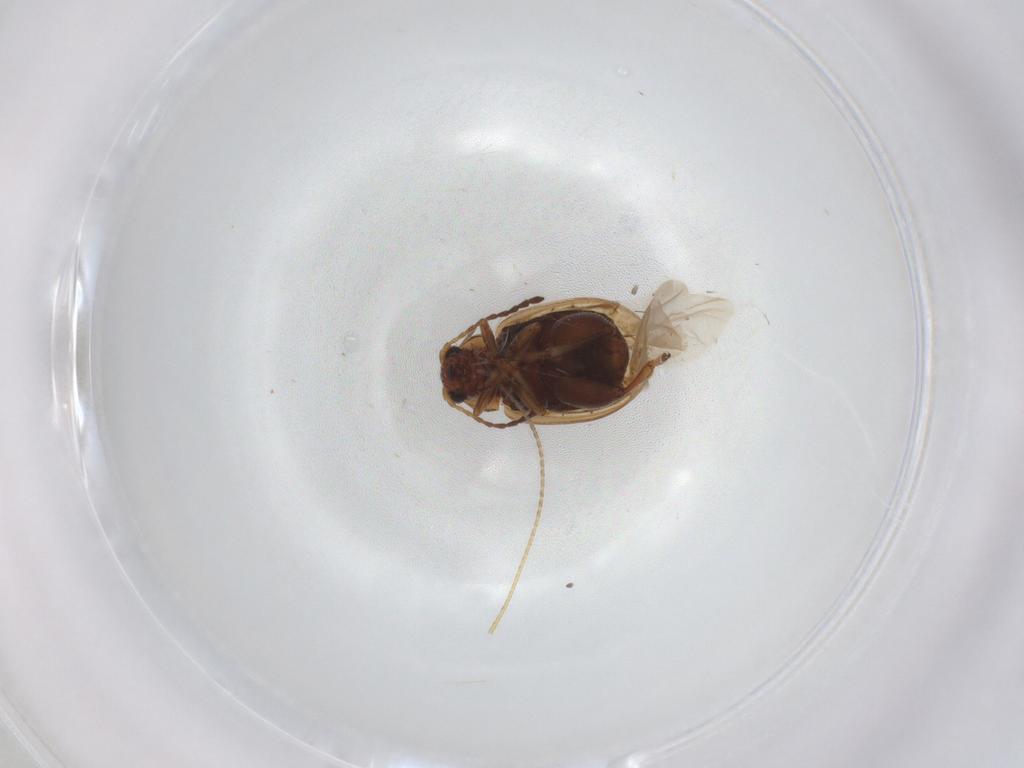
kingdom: Animalia
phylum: Arthropoda
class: Insecta
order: Coleoptera
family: Chrysomelidae
